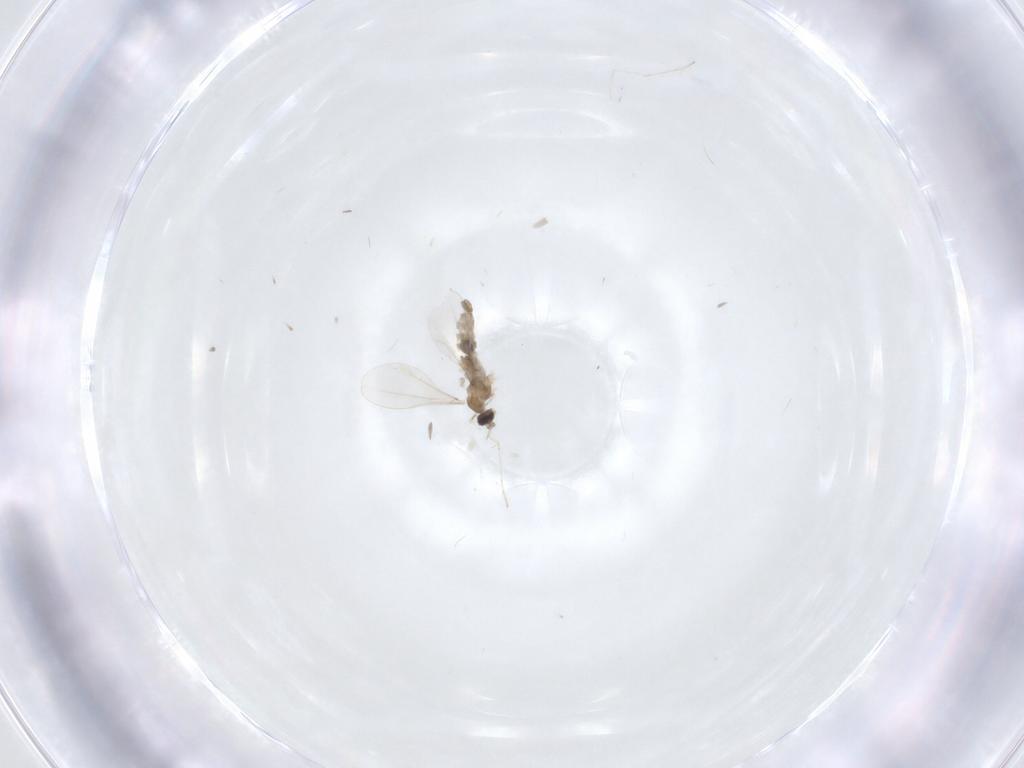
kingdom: Animalia
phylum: Arthropoda
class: Insecta
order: Diptera
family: Cecidomyiidae
